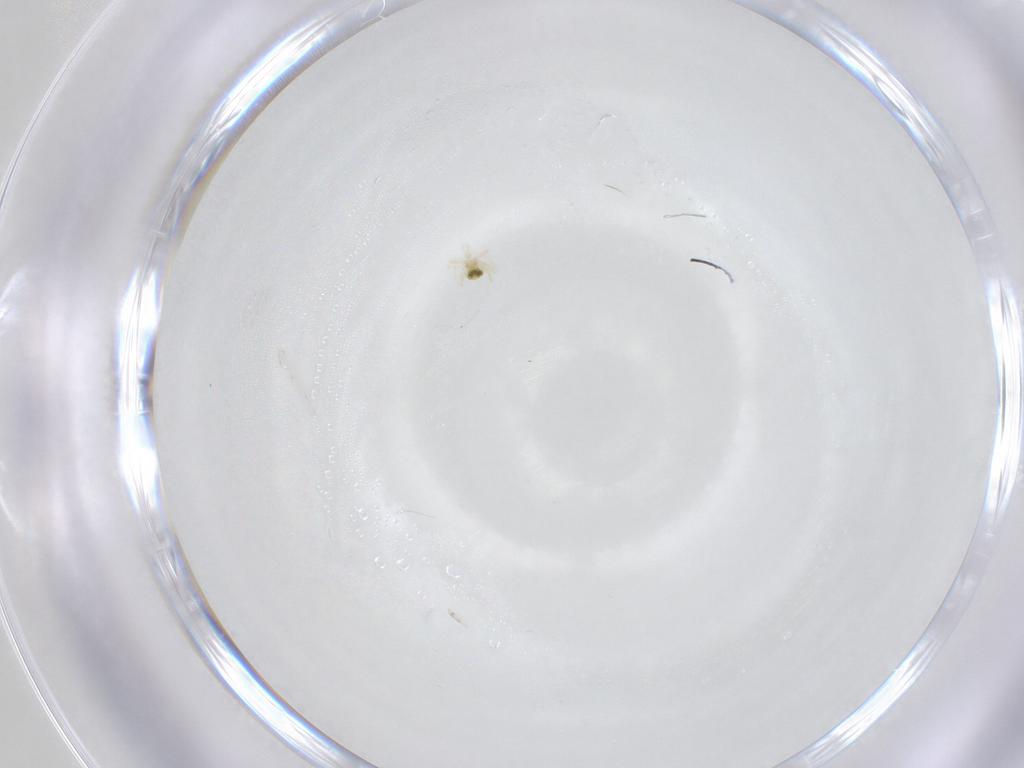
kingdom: Animalia
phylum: Arthropoda
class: Arachnida
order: Trombidiformes
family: Anystidae
